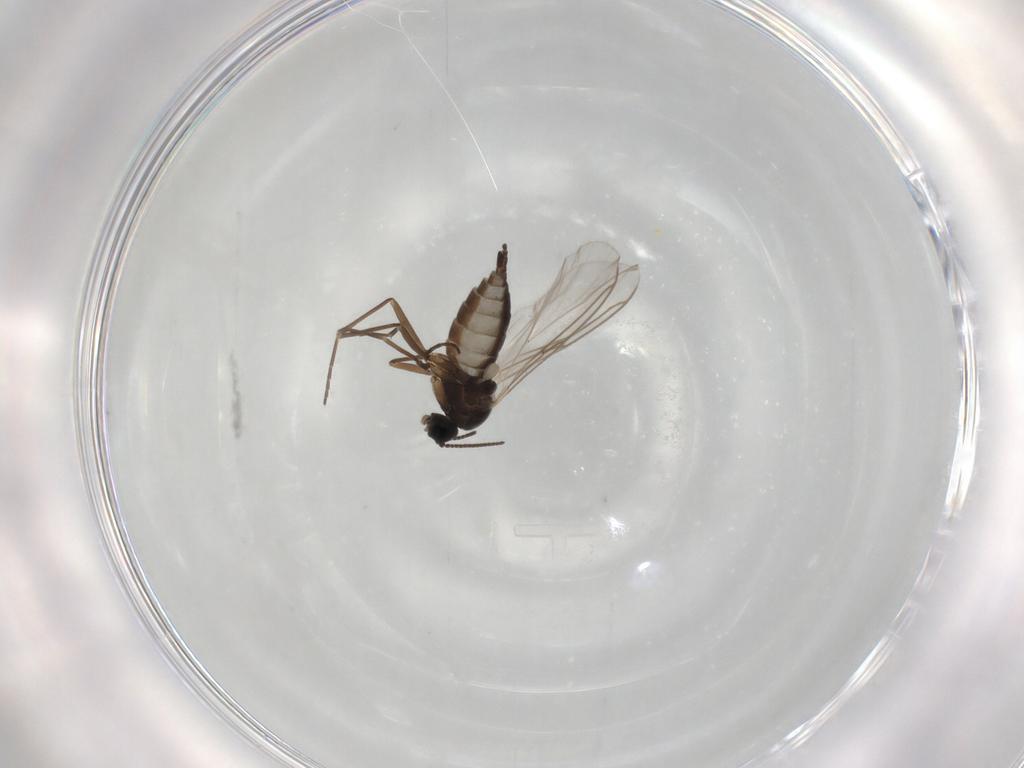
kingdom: Animalia
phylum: Arthropoda
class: Insecta
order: Diptera
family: Sciaridae
